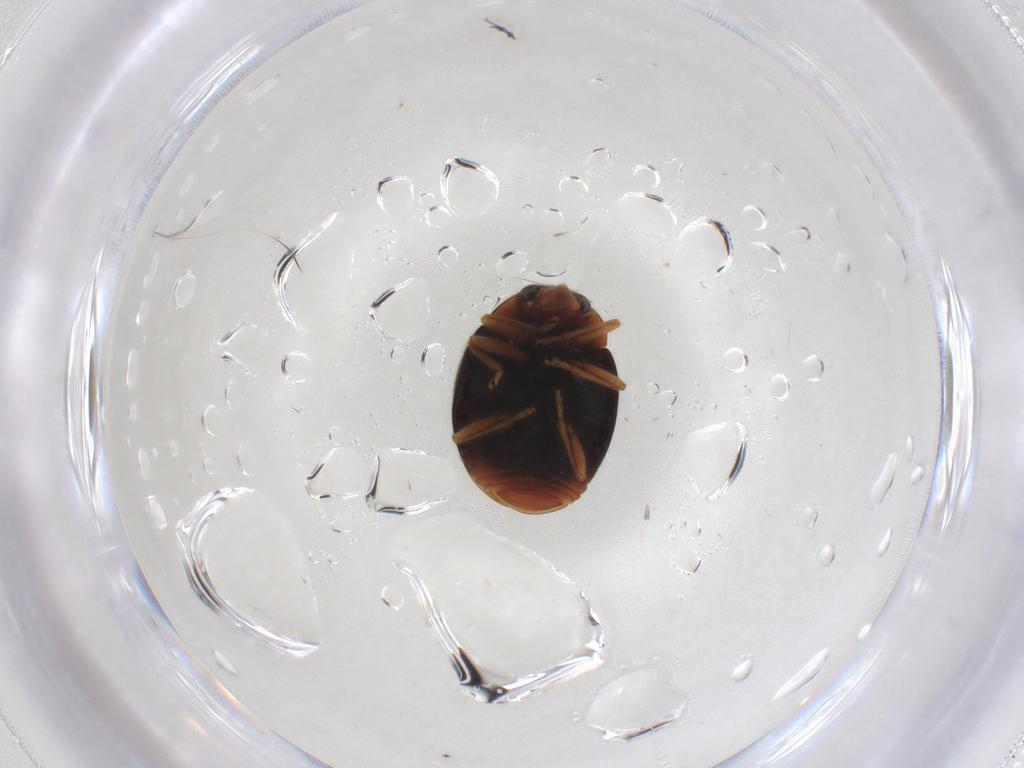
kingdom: Animalia
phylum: Arthropoda
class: Insecta
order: Coleoptera
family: Coccinellidae
